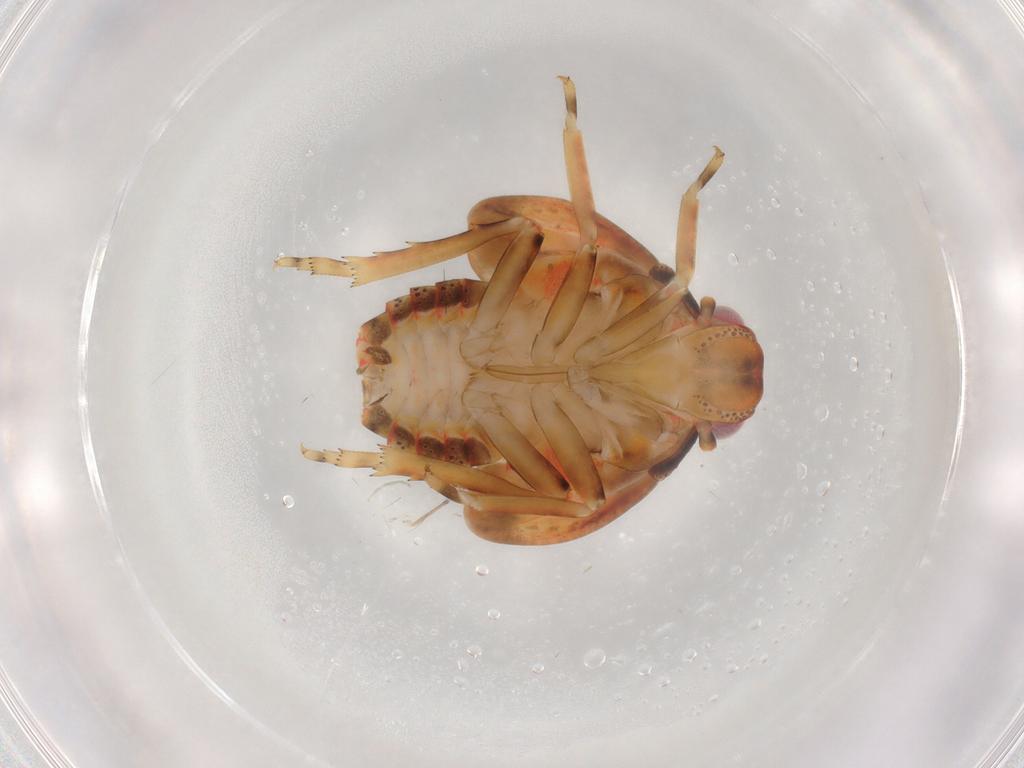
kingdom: Animalia
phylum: Arthropoda
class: Insecta
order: Hemiptera
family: Flatidae
